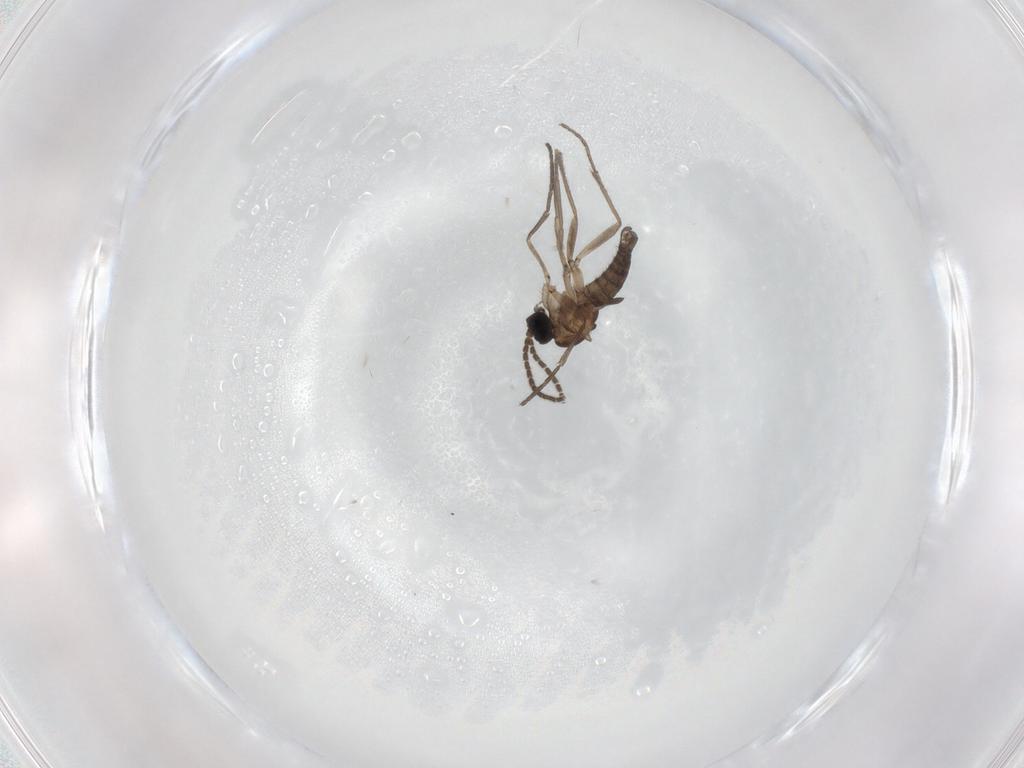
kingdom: Animalia
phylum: Arthropoda
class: Insecta
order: Diptera
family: Sciaridae
